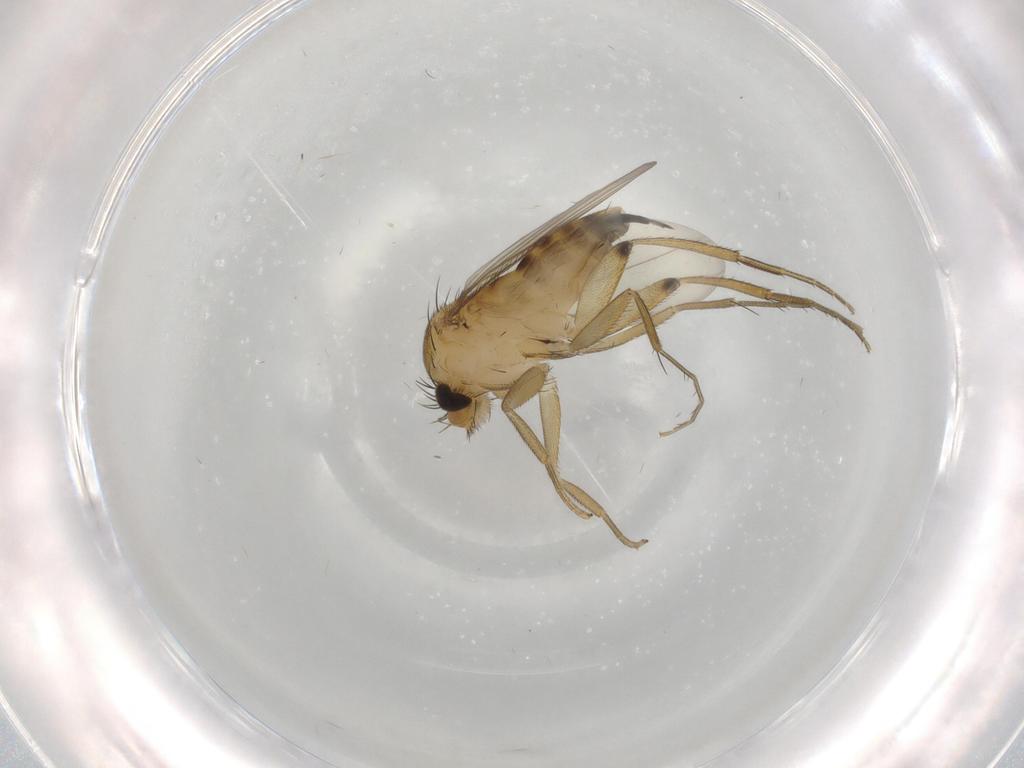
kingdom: Animalia
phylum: Arthropoda
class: Insecta
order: Diptera
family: Phoridae
